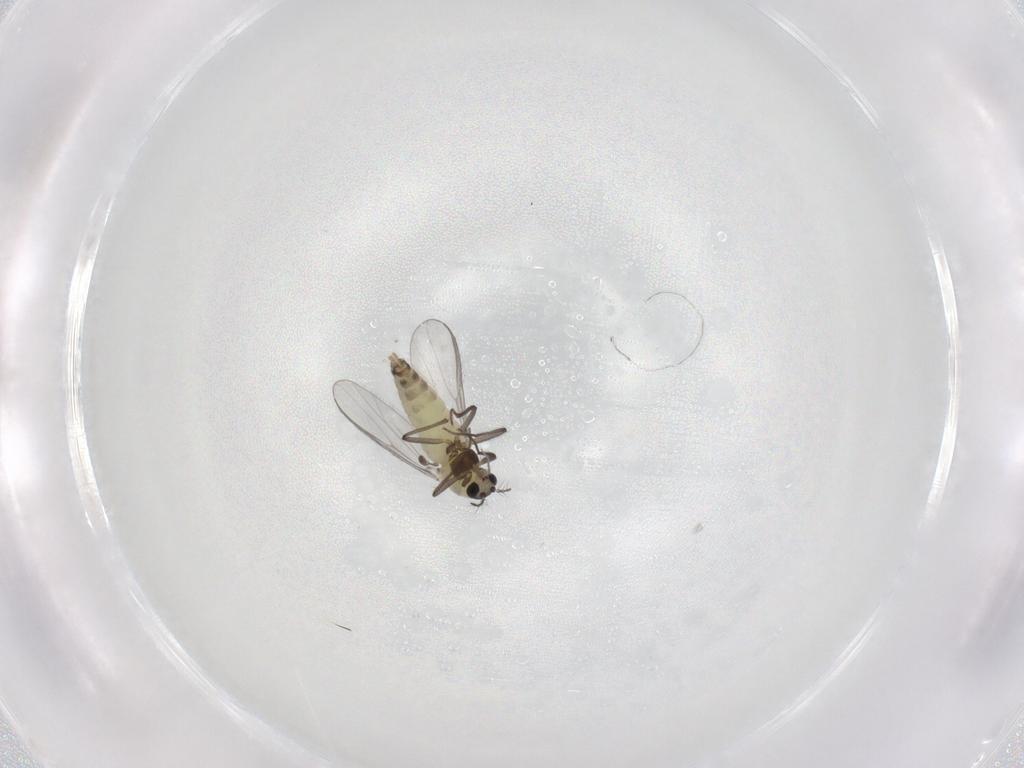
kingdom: Animalia
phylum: Arthropoda
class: Insecta
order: Diptera
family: Chironomidae
